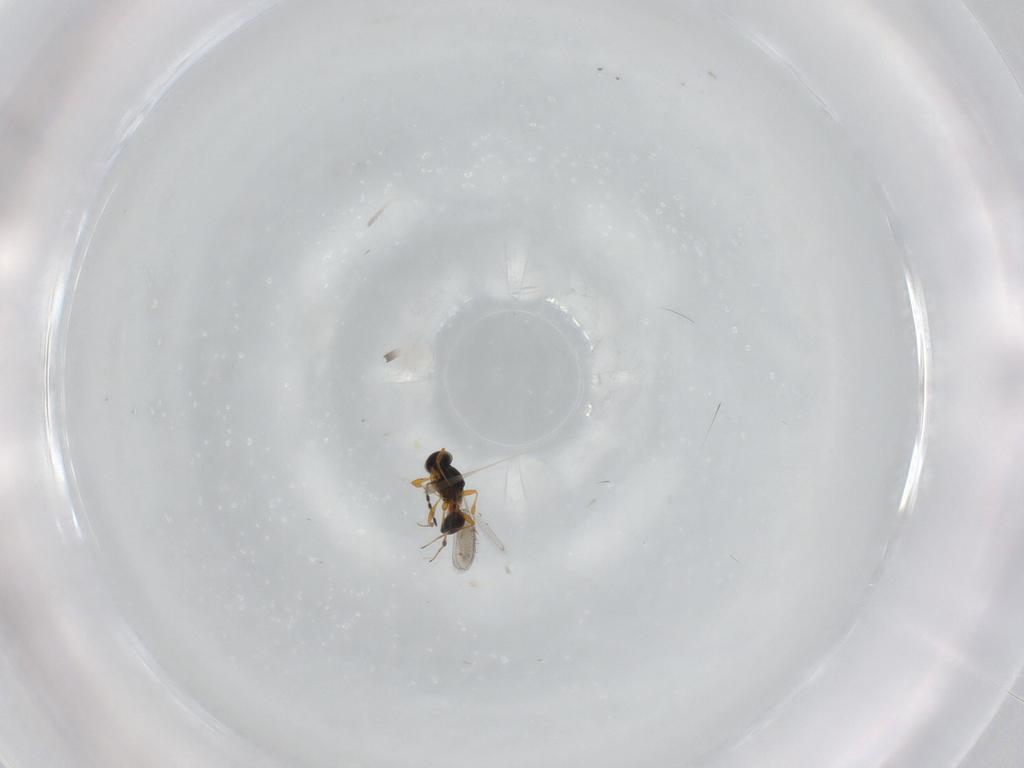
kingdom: Animalia
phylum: Arthropoda
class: Insecta
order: Hymenoptera
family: Platygastridae
